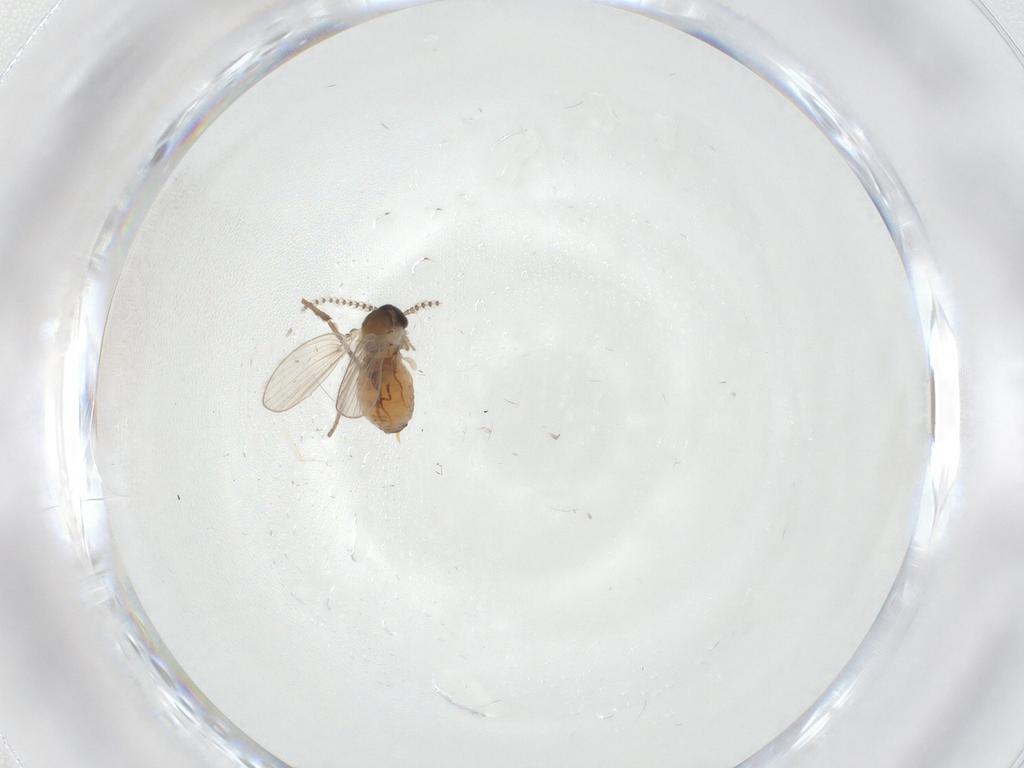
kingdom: Animalia
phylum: Arthropoda
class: Insecta
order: Diptera
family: Psychodidae
